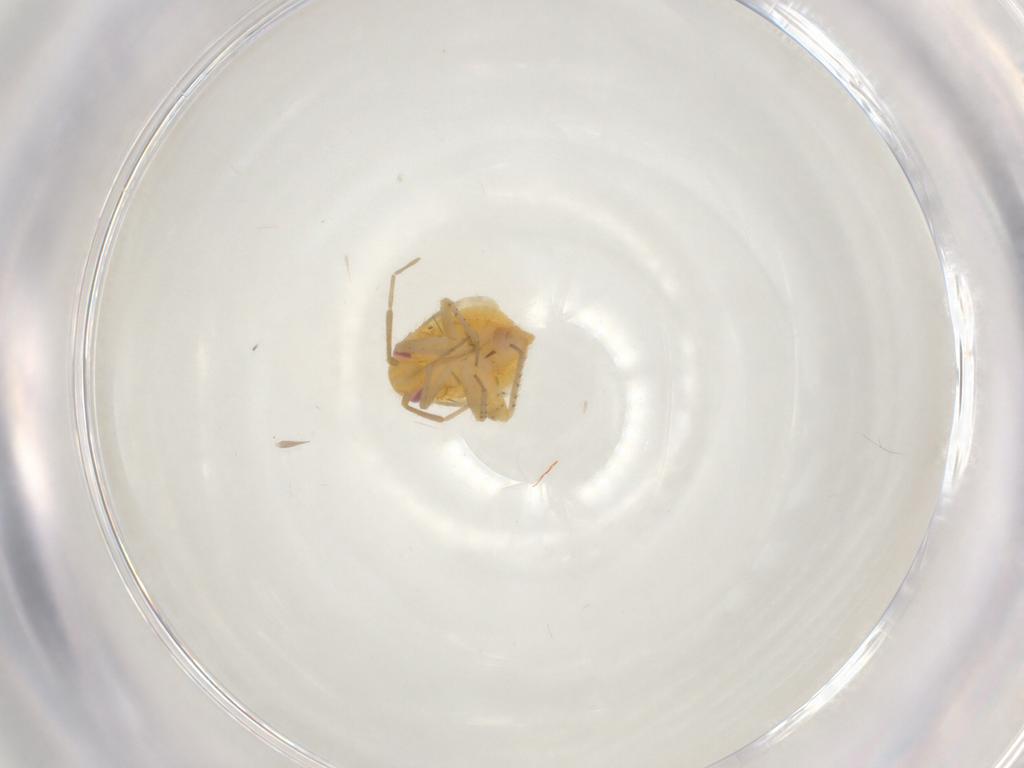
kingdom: Animalia
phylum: Arthropoda
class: Insecta
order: Hemiptera
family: Miridae
